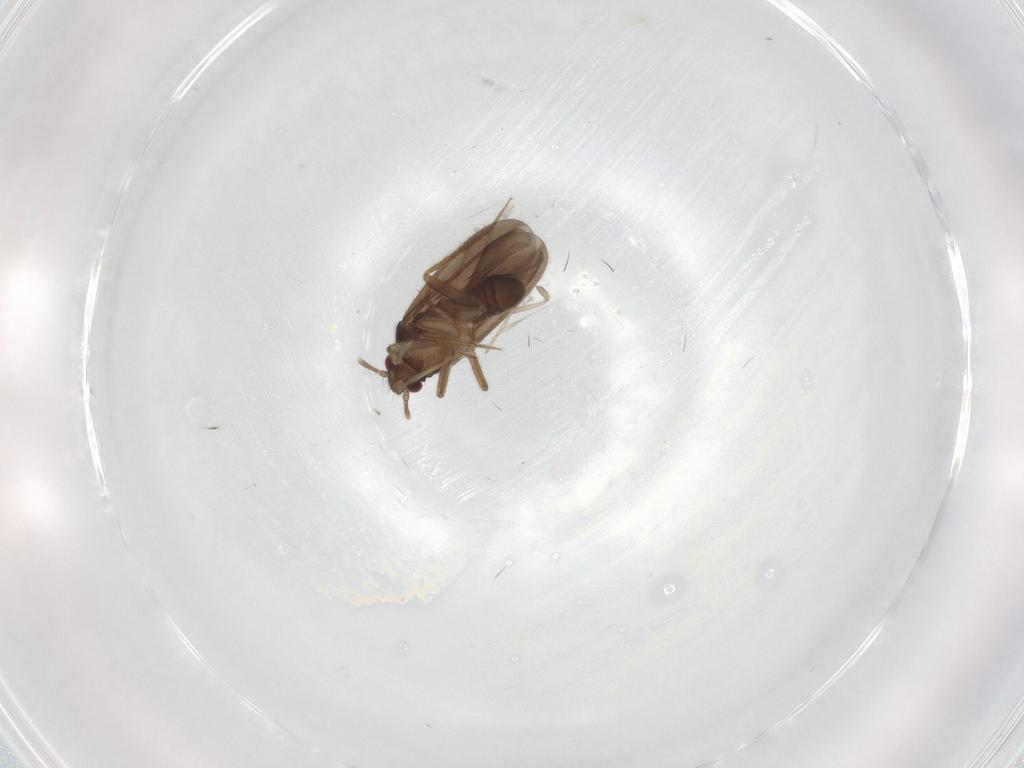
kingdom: Animalia
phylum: Arthropoda
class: Insecta
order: Hemiptera
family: Ceratocombidae
